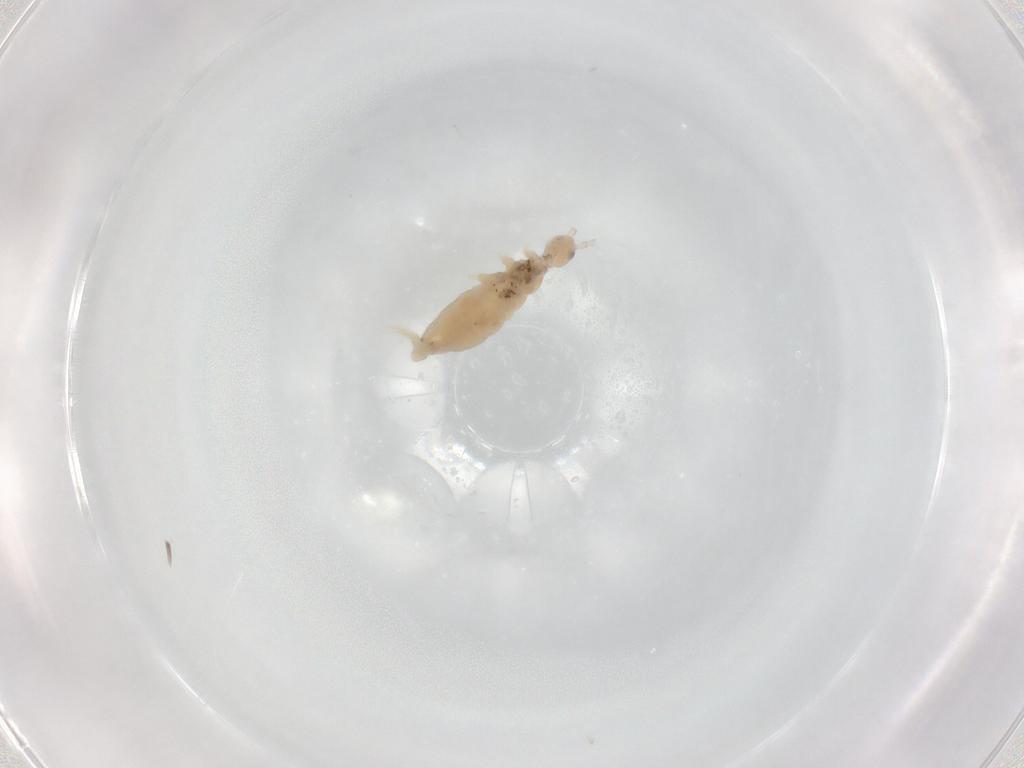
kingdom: Animalia
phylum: Arthropoda
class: Collembola
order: Entomobryomorpha
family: Entomobryidae
